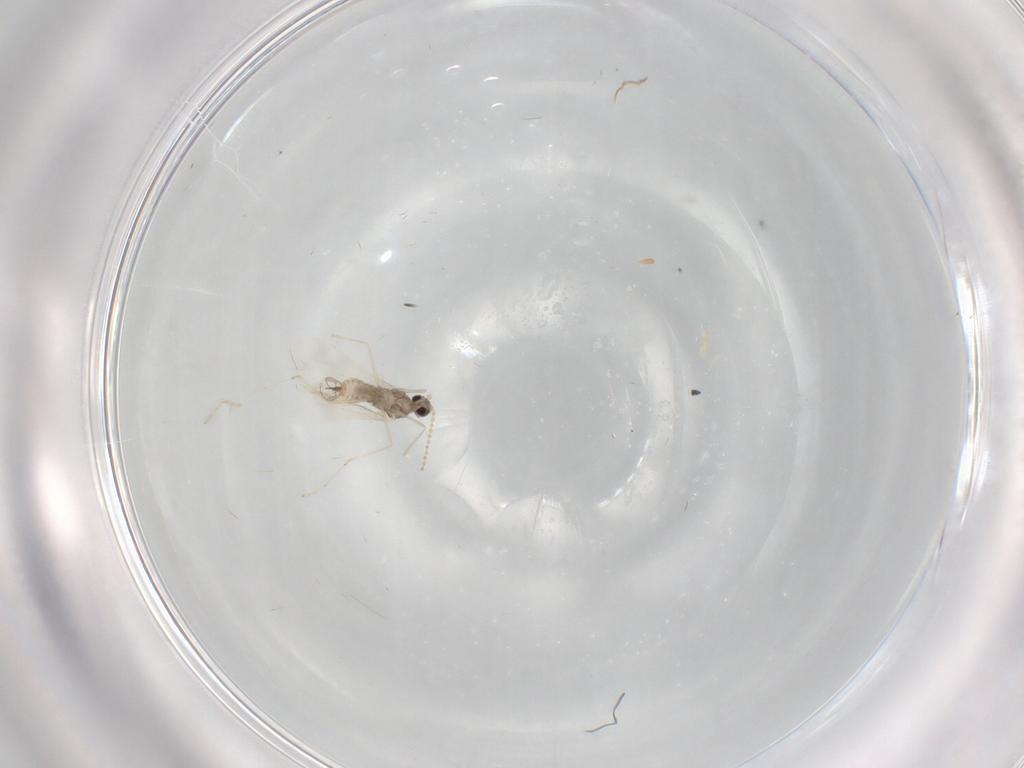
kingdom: Animalia
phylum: Arthropoda
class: Insecta
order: Diptera
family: Cecidomyiidae
